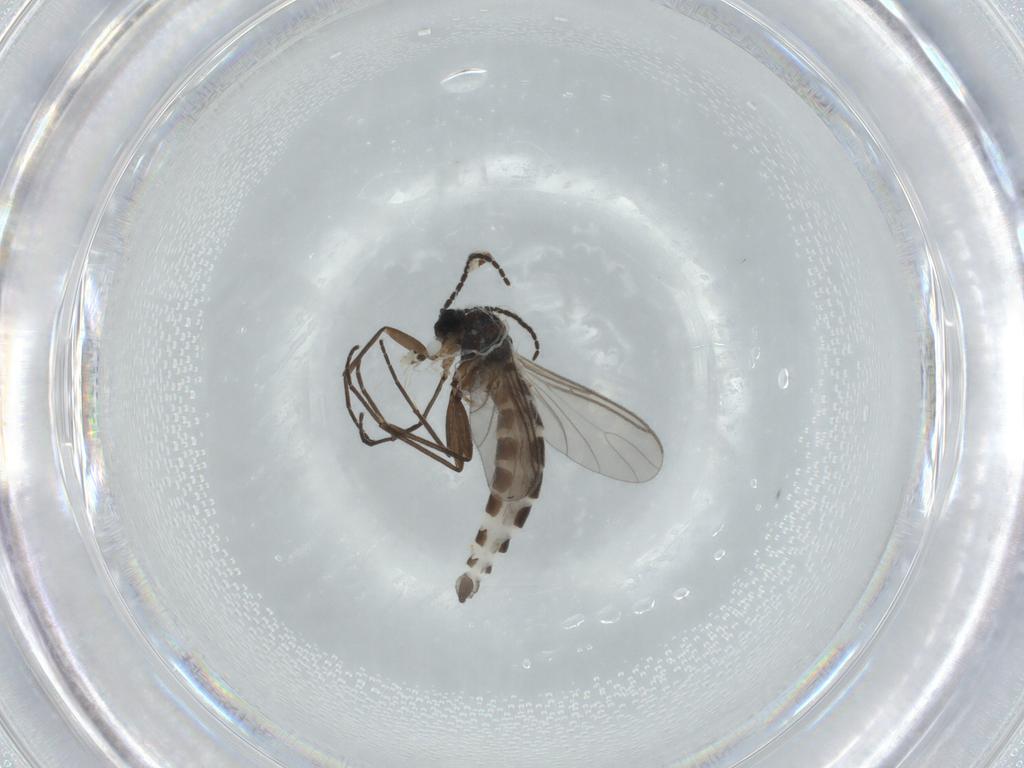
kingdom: Animalia
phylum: Arthropoda
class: Insecta
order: Diptera
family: Sciaridae
